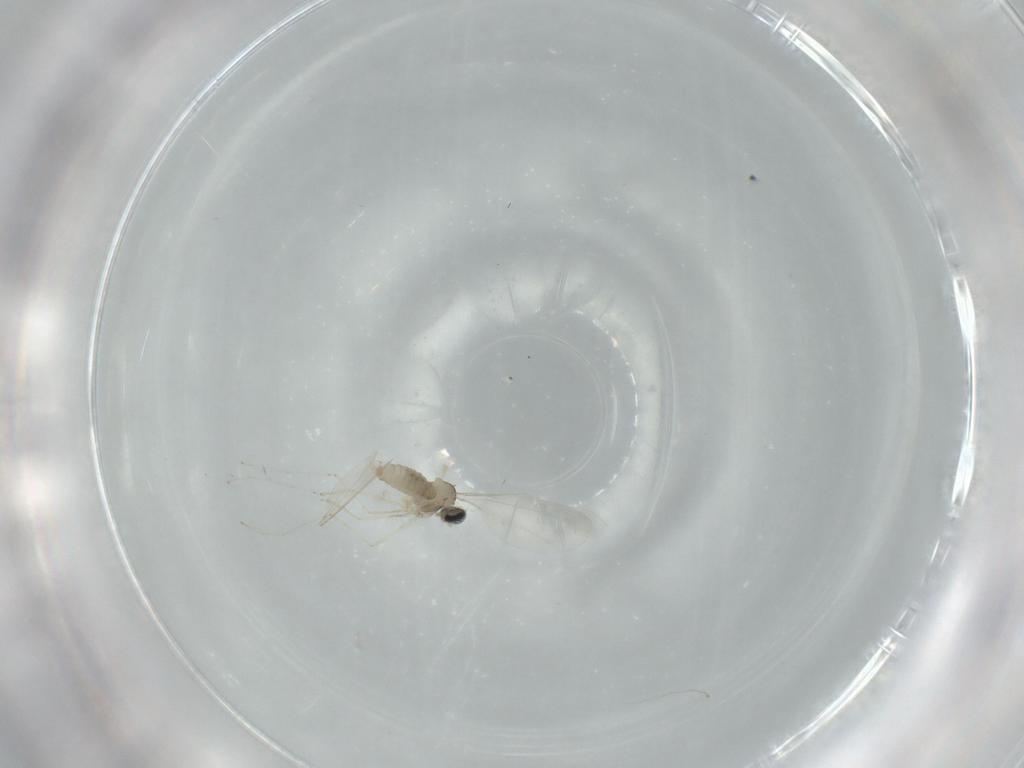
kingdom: Animalia
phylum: Arthropoda
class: Insecta
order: Diptera
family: Cecidomyiidae
